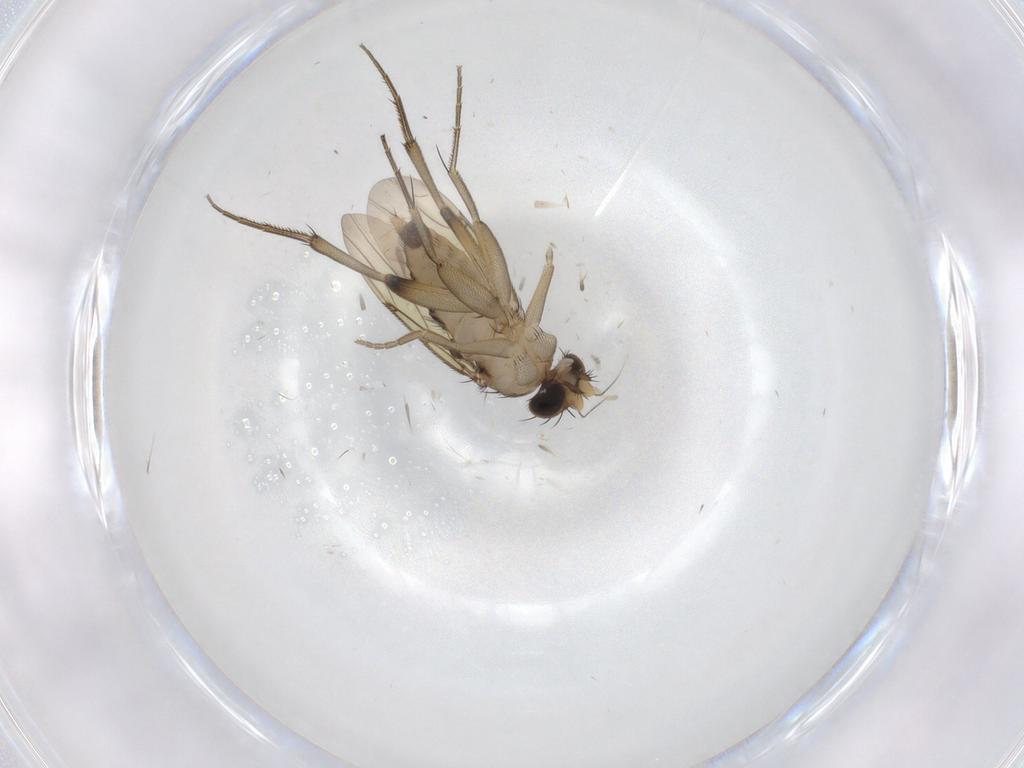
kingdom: Animalia
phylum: Arthropoda
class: Insecta
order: Diptera
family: Phoridae
